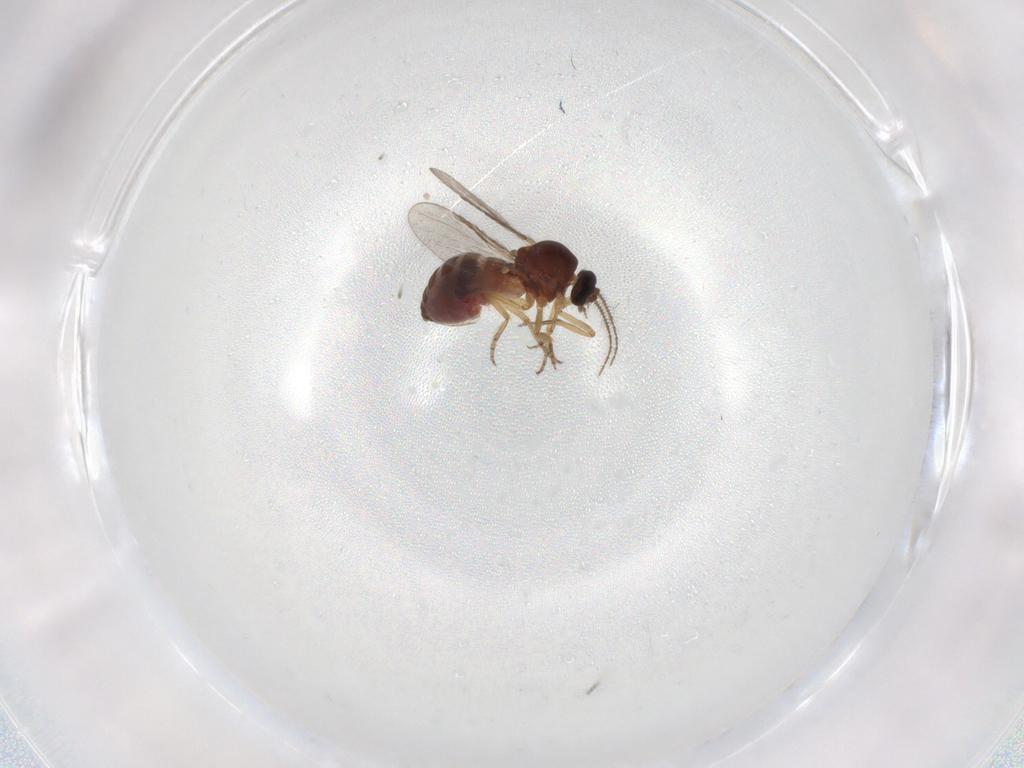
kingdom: Animalia
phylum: Arthropoda
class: Insecta
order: Diptera
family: Ceratopogonidae
